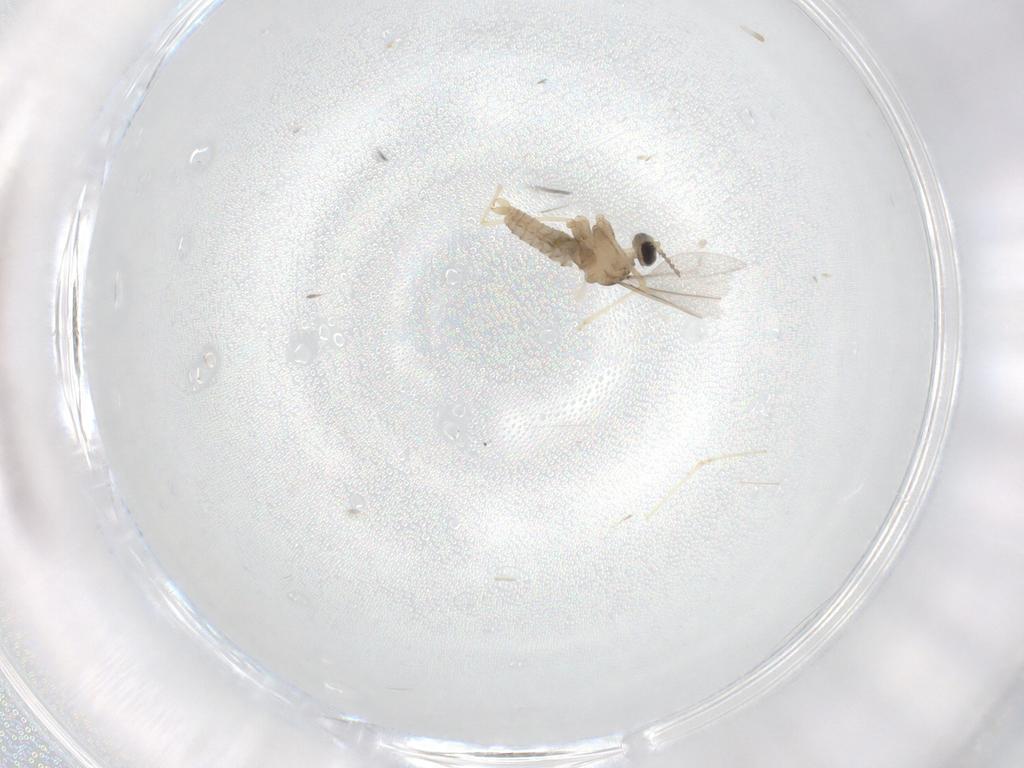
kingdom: Animalia
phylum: Arthropoda
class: Insecta
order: Diptera
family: Cecidomyiidae
